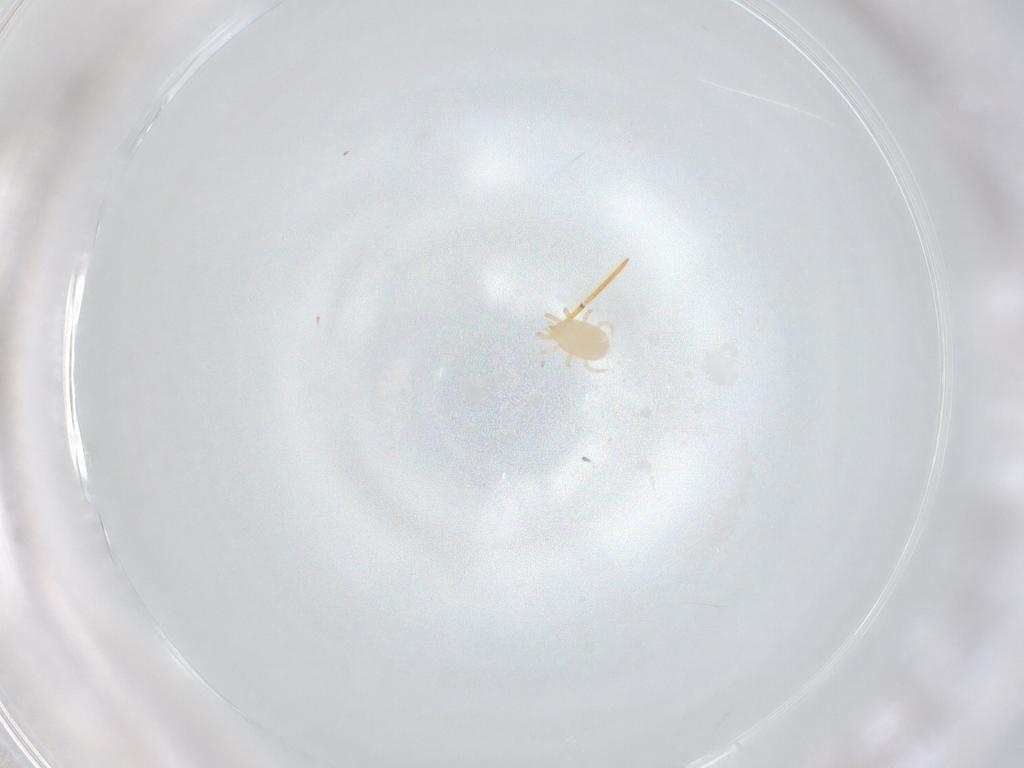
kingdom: Animalia
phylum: Arthropoda
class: Arachnida
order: Mesostigmata
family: Melicharidae
